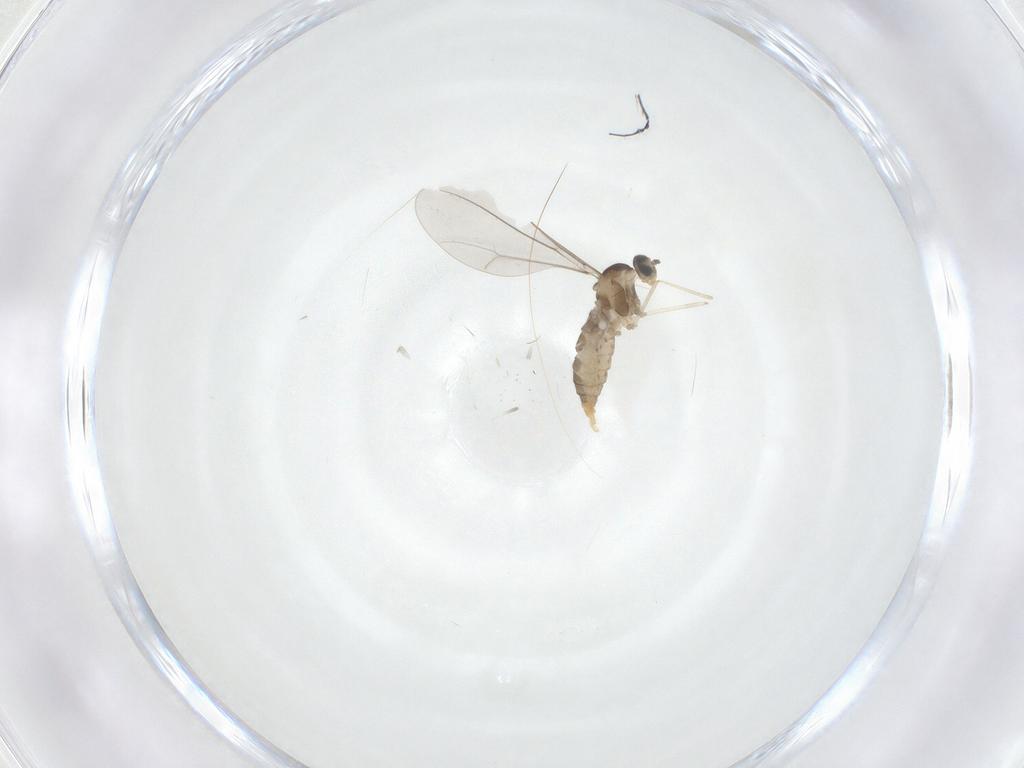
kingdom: Animalia
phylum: Arthropoda
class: Insecta
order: Diptera
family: Cecidomyiidae
